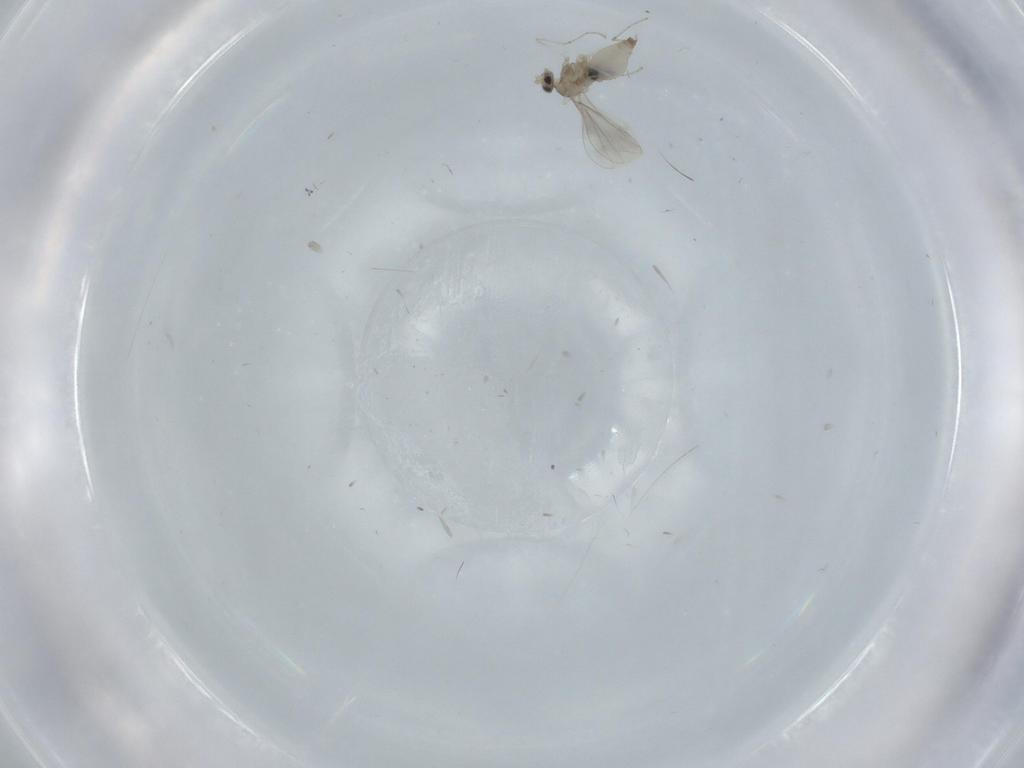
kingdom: Animalia
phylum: Arthropoda
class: Insecta
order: Diptera
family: Cecidomyiidae
